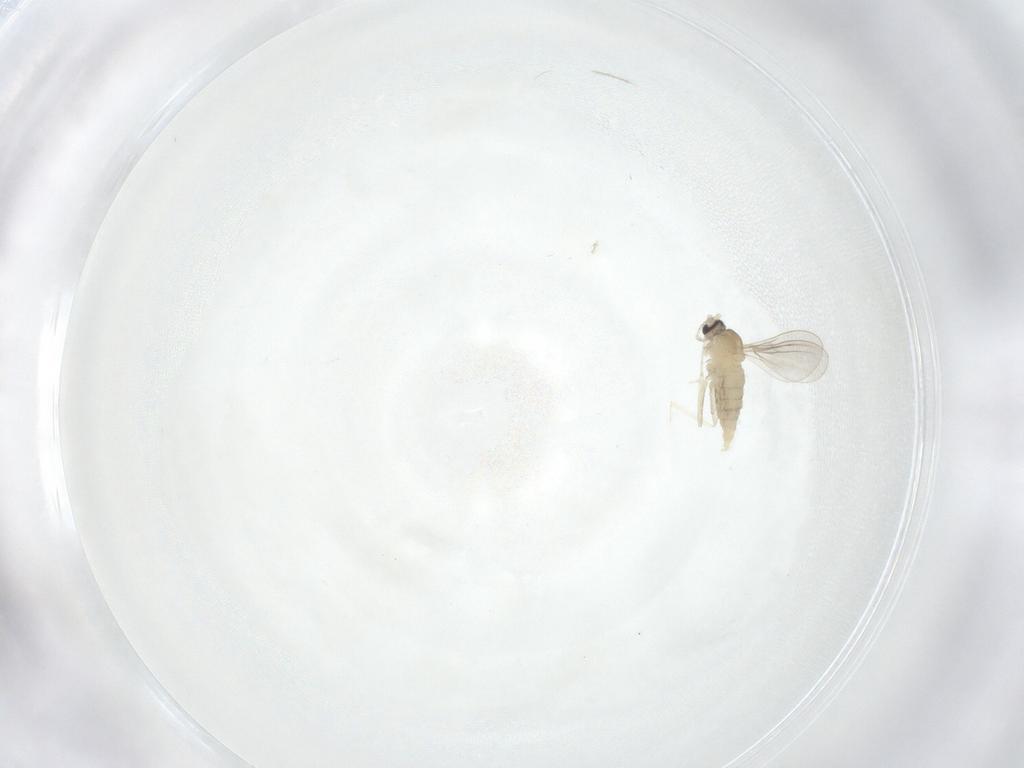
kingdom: Animalia
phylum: Arthropoda
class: Insecta
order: Diptera
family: Cecidomyiidae
